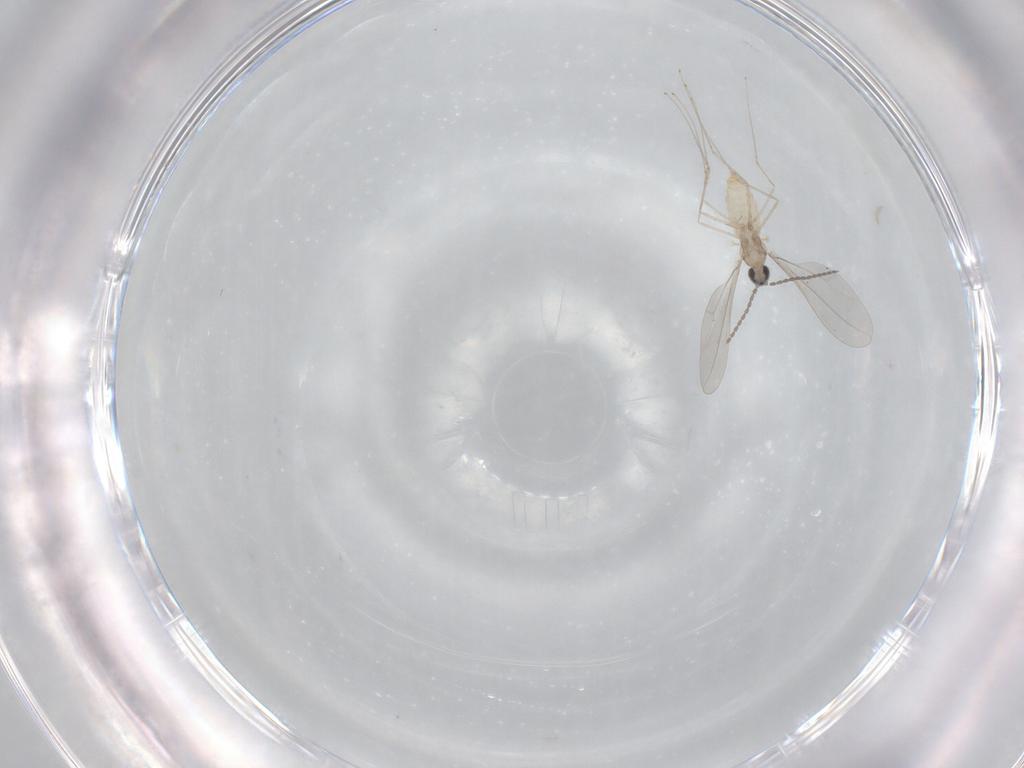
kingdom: Animalia
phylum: Arthropoda
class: Insecta
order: Diptera
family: Cecidomyiidae
